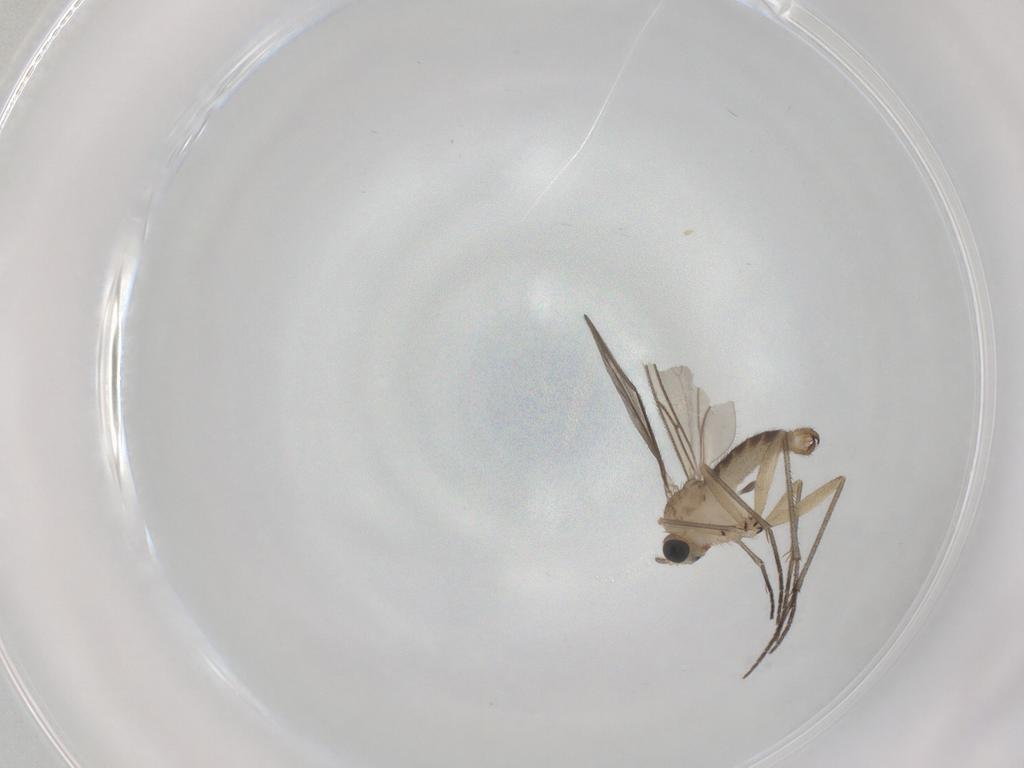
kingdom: Animalia
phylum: Arthropoda
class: Insecta
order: Diptera
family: Sciaridae
